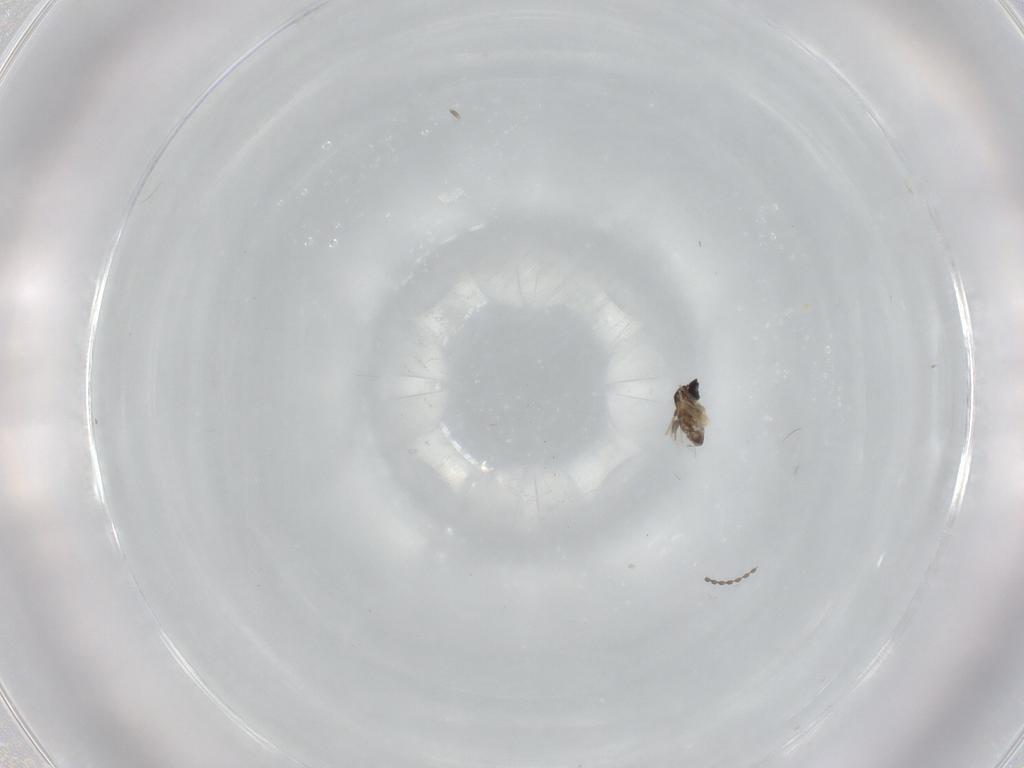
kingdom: Animalia
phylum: Arthropoda
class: Insecta
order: Diptera
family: Cecidomyiidae
